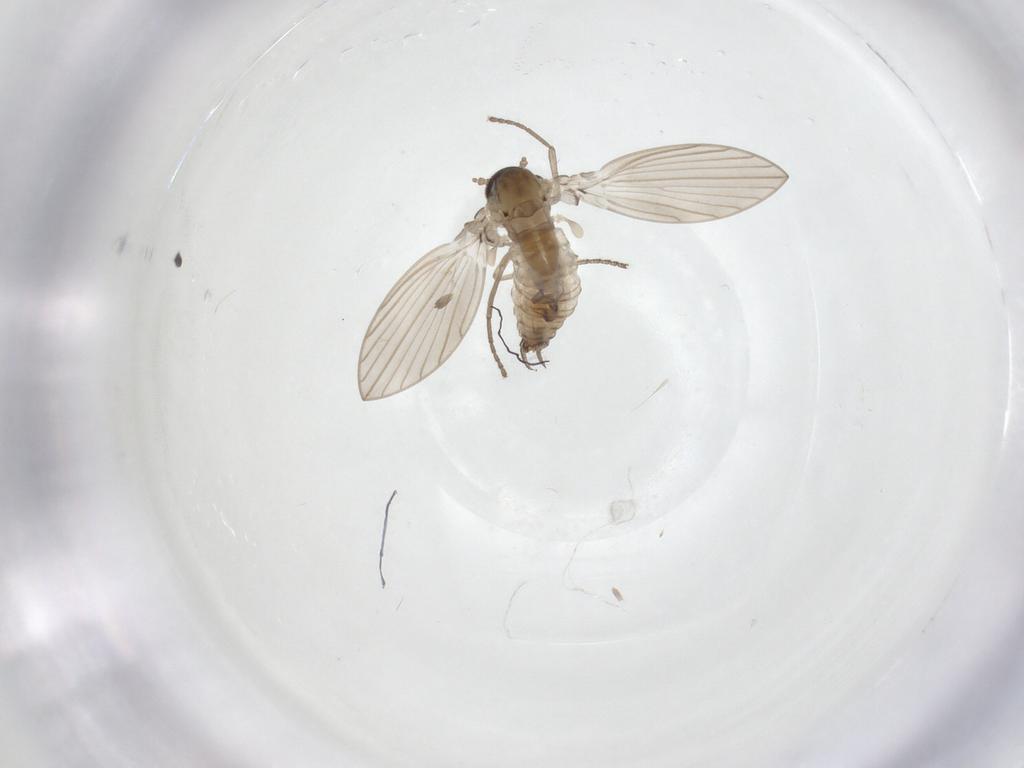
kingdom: Animalia
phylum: Arthropoda
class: Insecta
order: Diptera
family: Psychodidae
